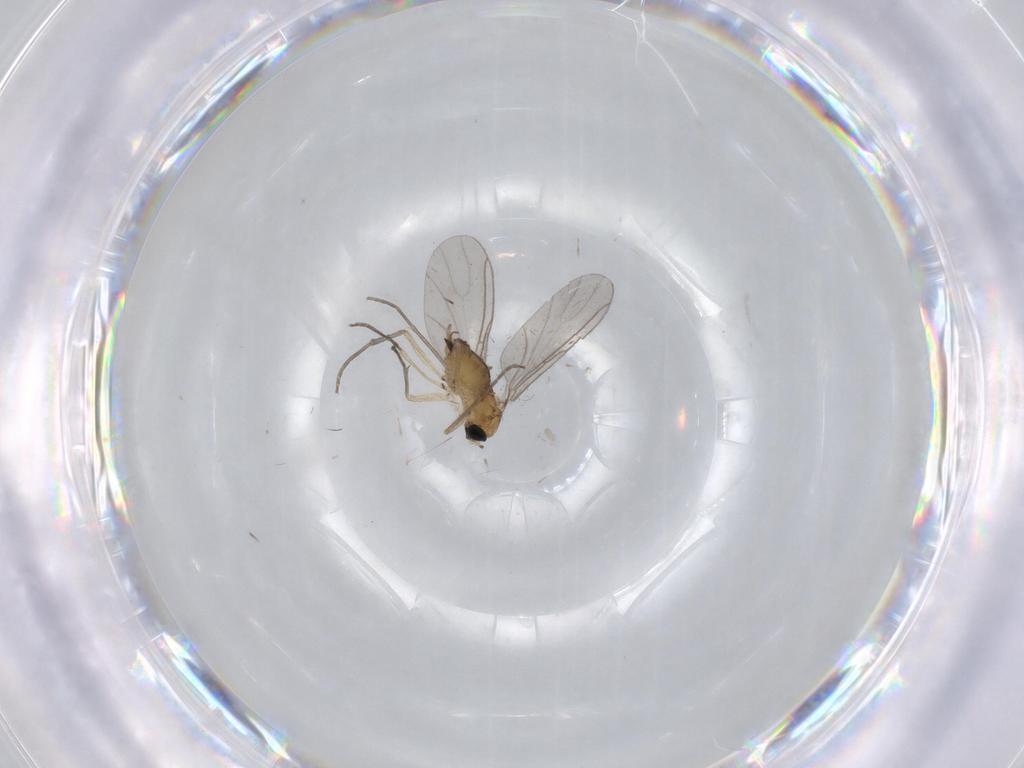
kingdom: Animalia
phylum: Arthropoda
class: Insecta
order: Diptera
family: Sciaridae
